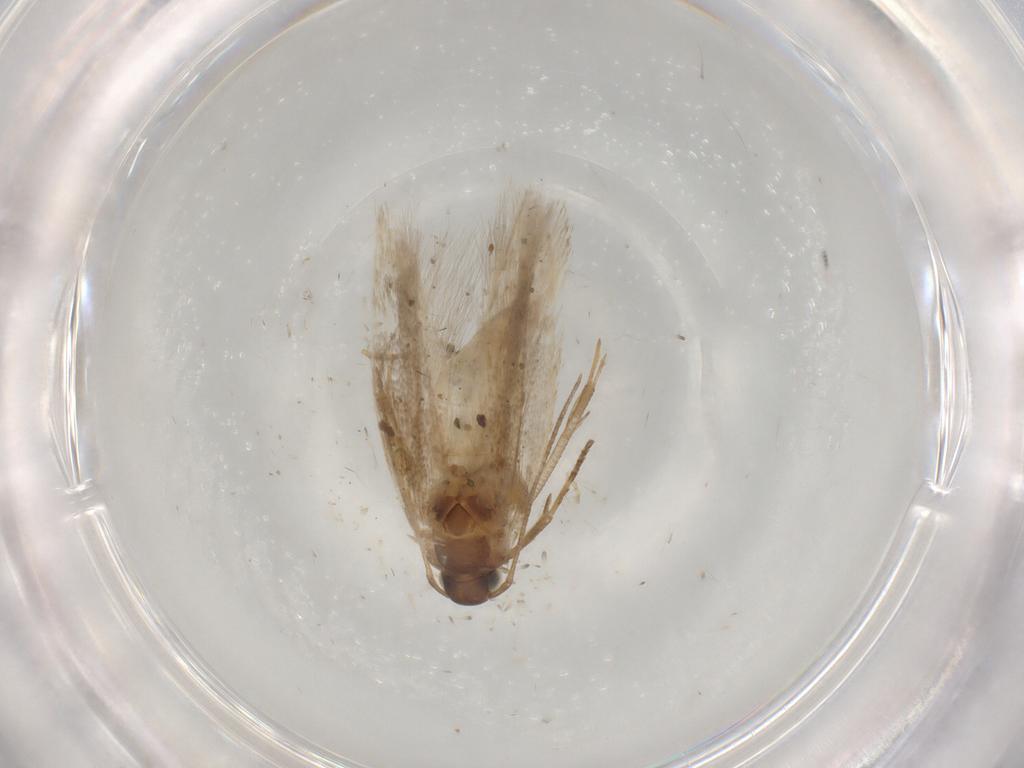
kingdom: Animalia
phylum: Arthropoda
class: Insecta
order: Lepidoptera
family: Gelechiidae
